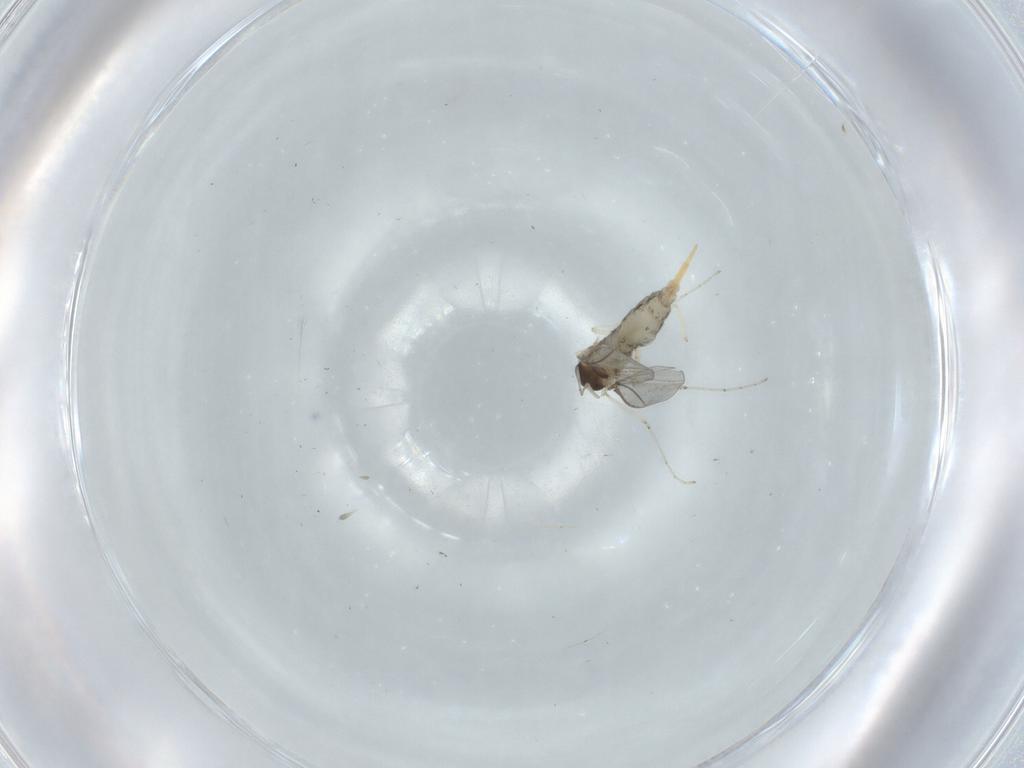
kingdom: Animalia
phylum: Arthropoda
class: Insecta
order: Diptera
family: Cecidomyiidae
